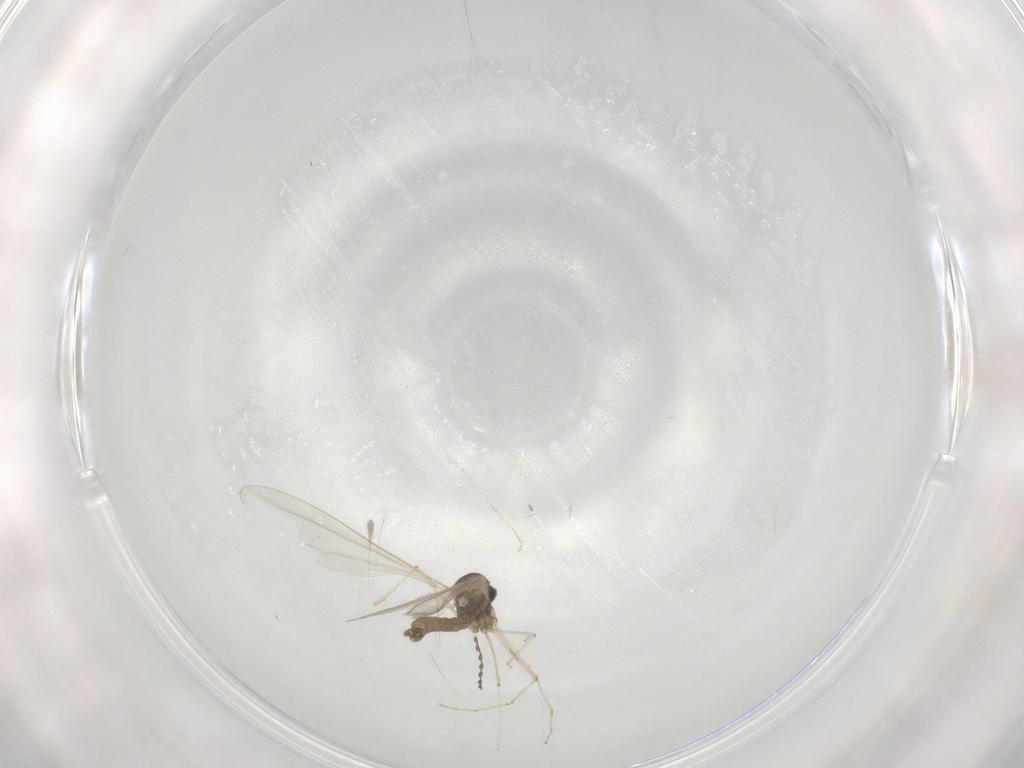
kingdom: Animalia
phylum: Arthropoda
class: Insecta
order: Diptera
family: Cecidomyiidae
